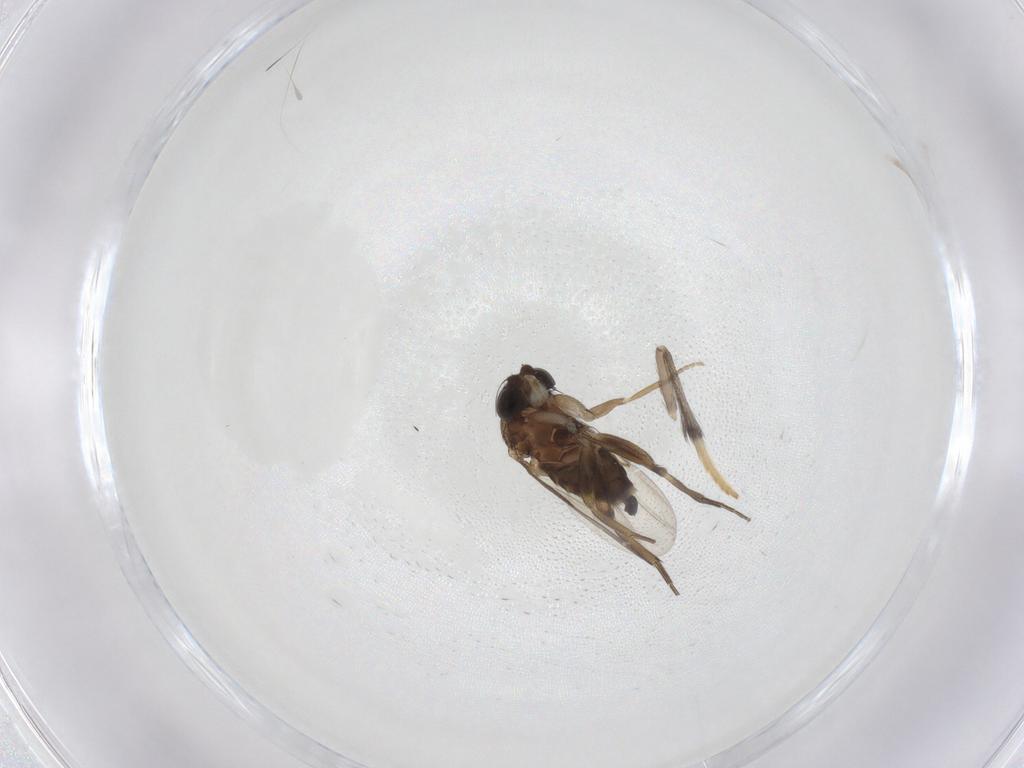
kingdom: Animalia
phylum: Arthropoda
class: Insecta
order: Diptera
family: Phoridae
